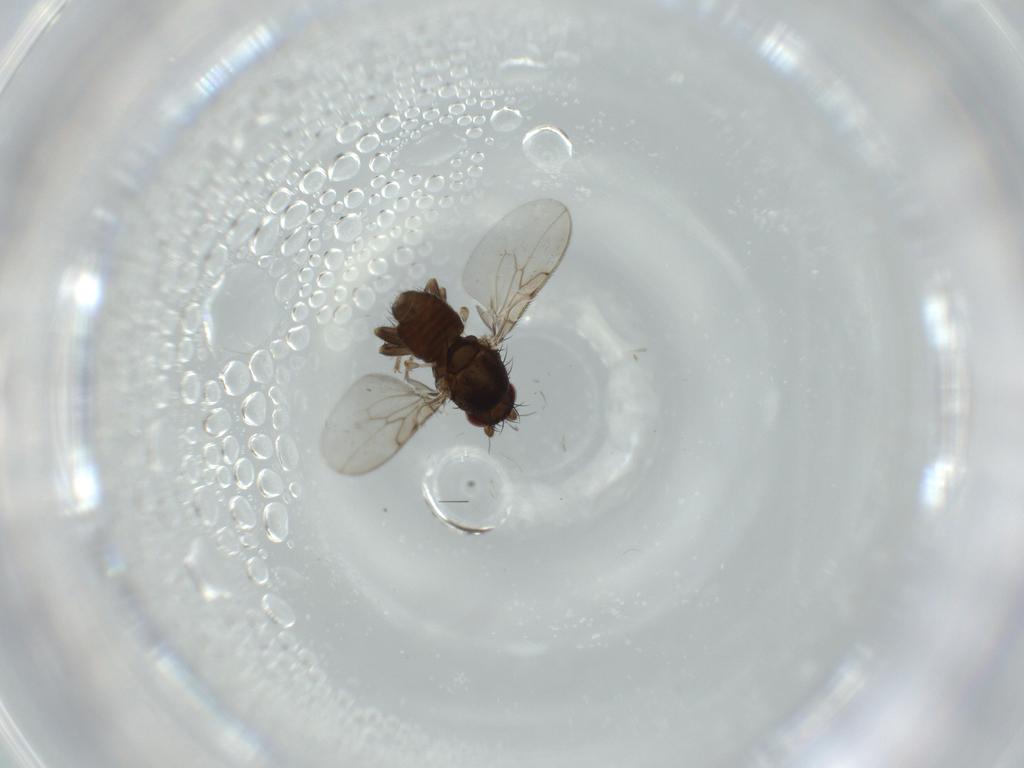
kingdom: Animalia
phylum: Arthropoda
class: Insecta
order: Diptera
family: Sphaeroceridae
